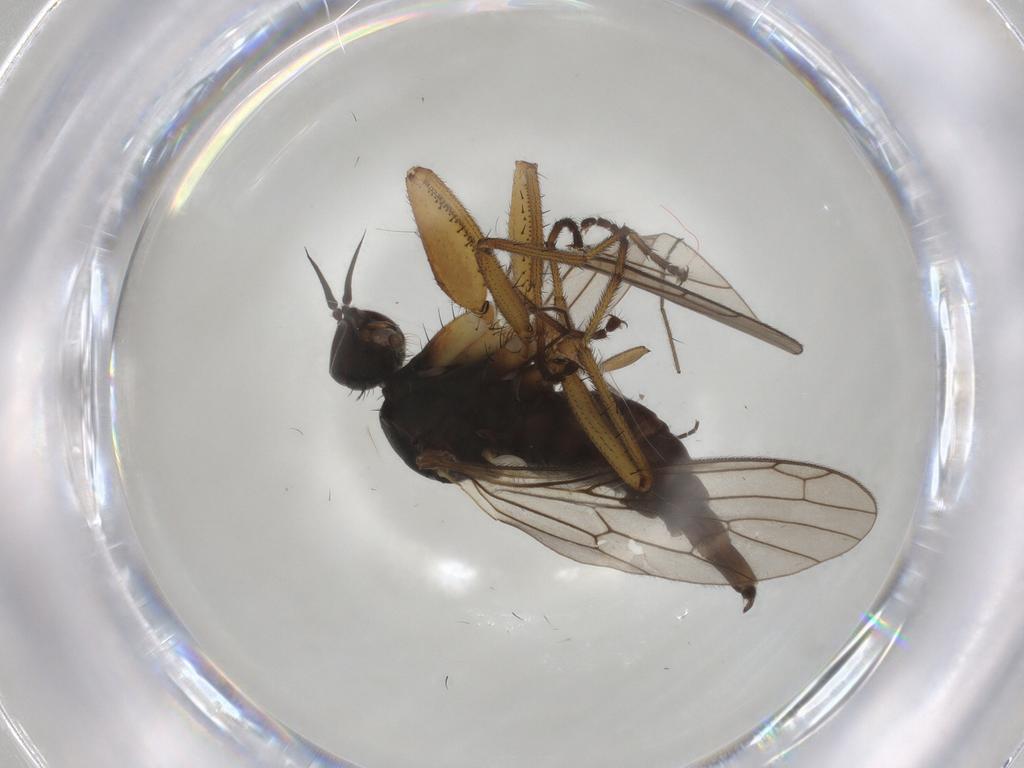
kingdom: Animalia
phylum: Arthropoda
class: Insecta
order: Diptera
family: Empididae
